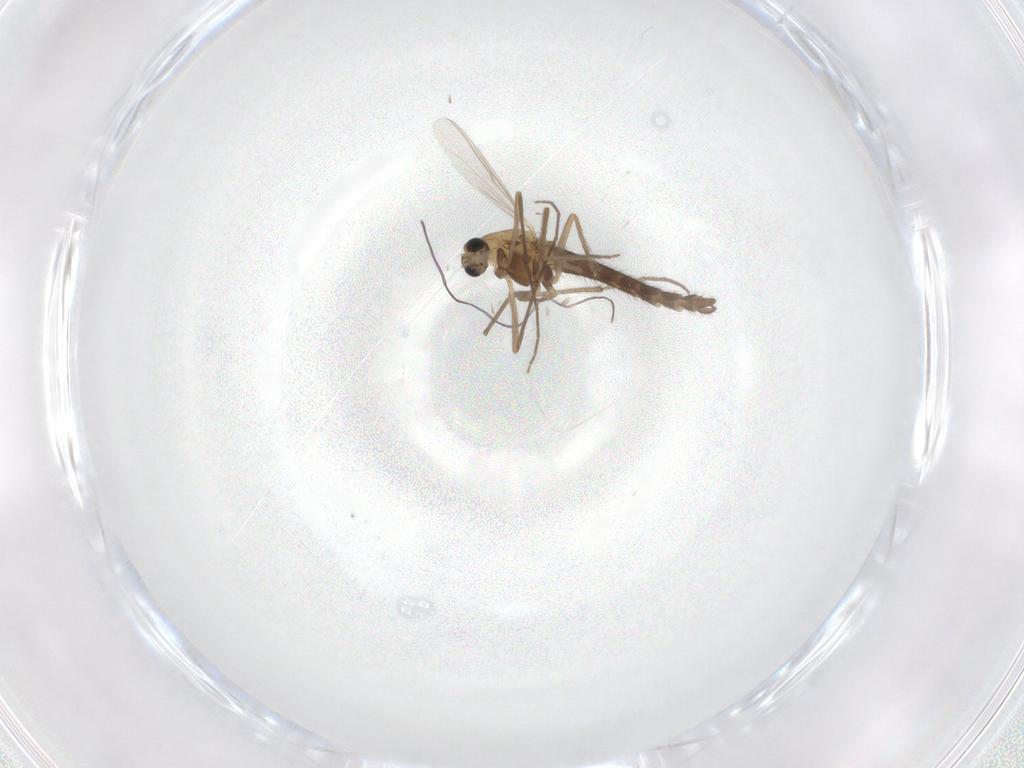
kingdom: Animalia
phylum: Arthropoda
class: Insecta
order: Diptera
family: Chironomidae
